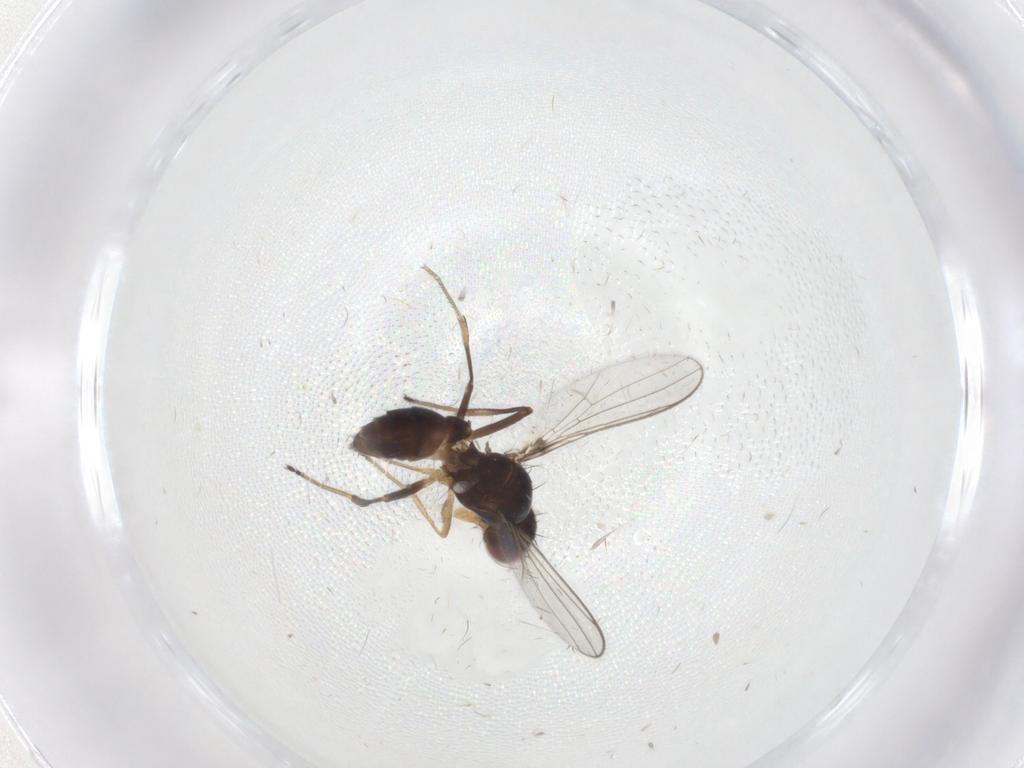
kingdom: Animalia
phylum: Arthropoda
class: Insecta
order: Diptera
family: Sepsidae
